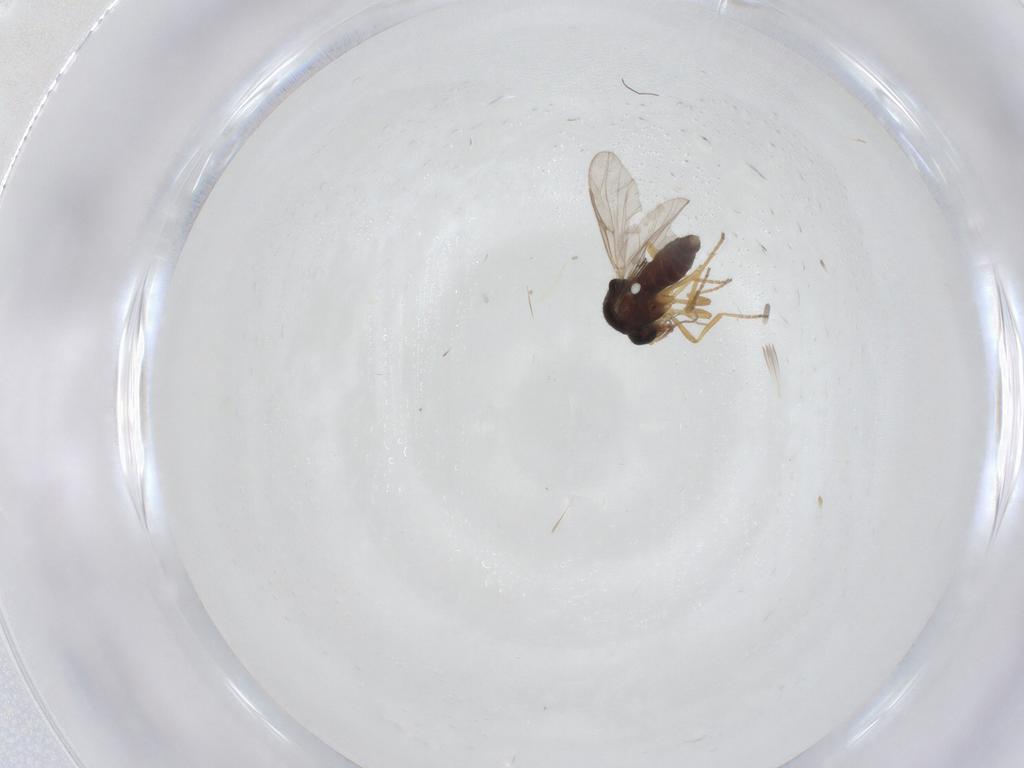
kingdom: Animalia
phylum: Arthropoda
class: Insecta
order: Diptera
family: Ceratopogonidae
